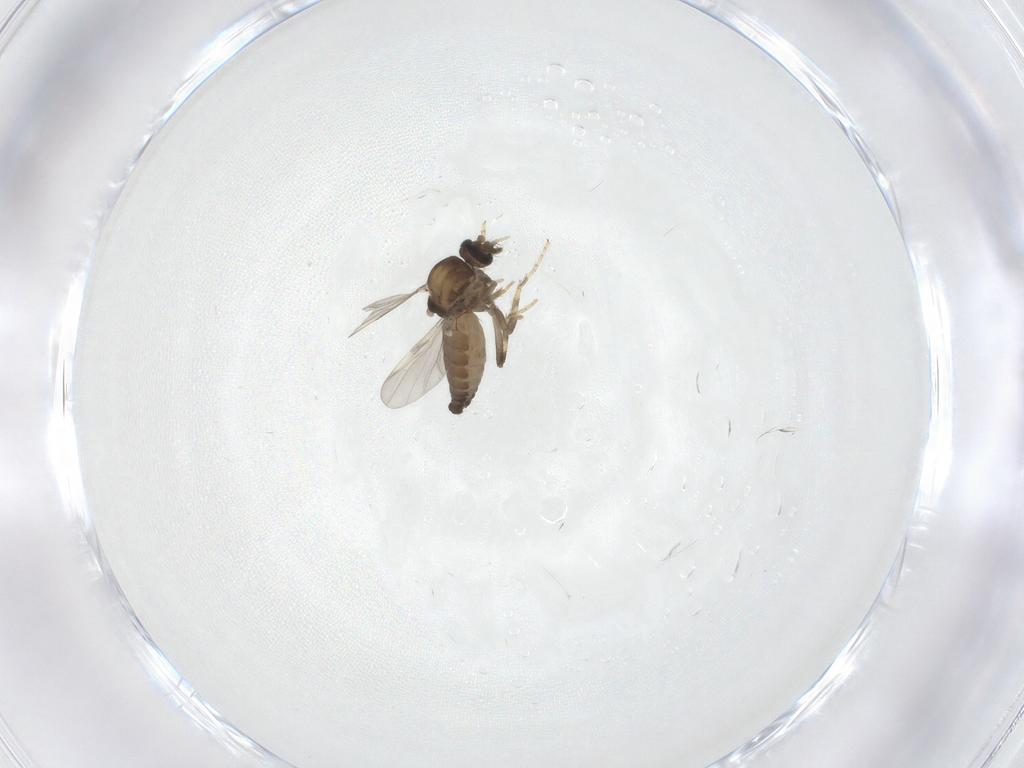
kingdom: Animalia
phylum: Arthropoda
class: Insecta
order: Diptera
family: Ceratopogonidae
